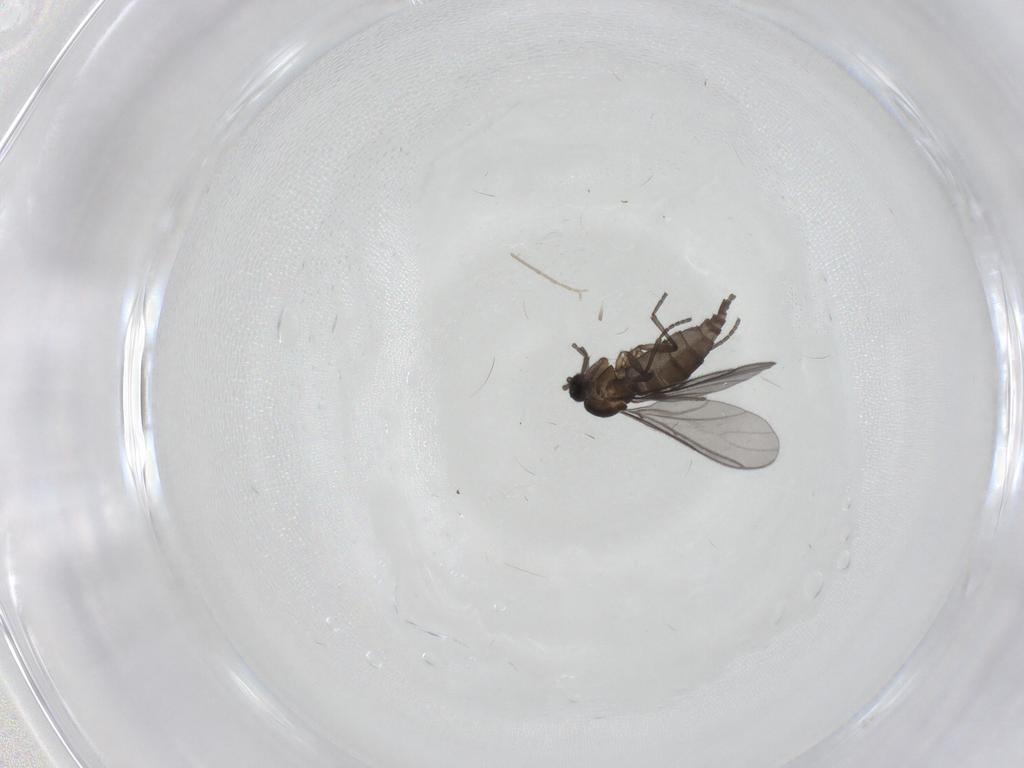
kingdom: Animalia
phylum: Arthropoda
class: Insecta
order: Diptera
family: Sciaridae
